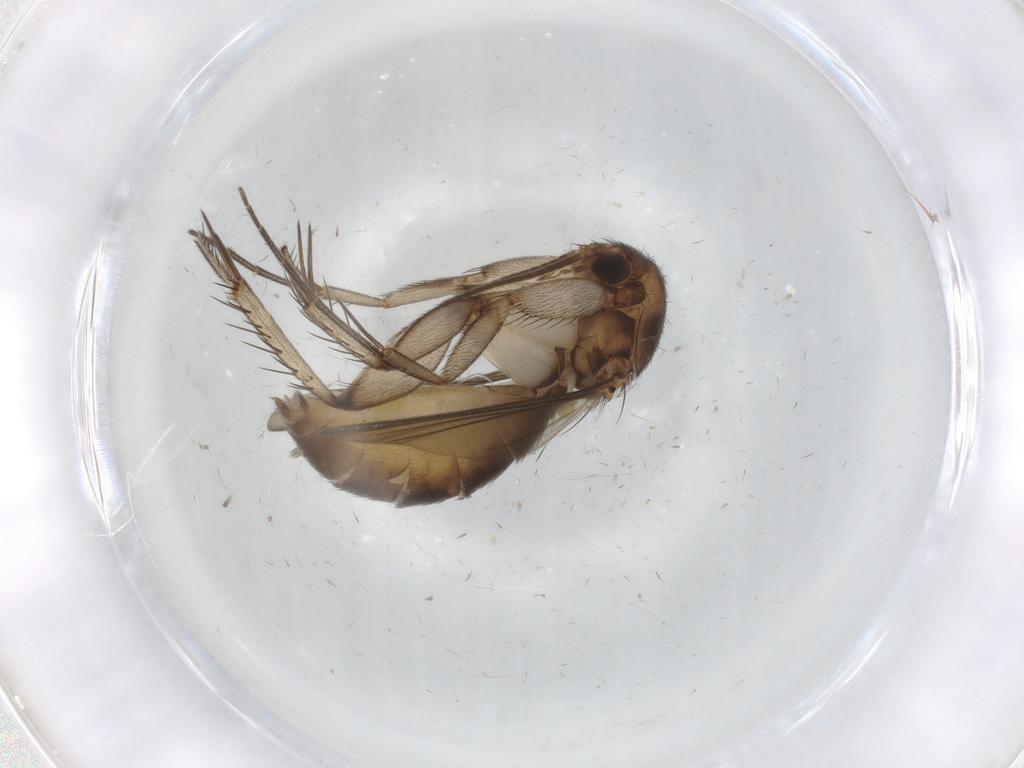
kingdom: Animalia
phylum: Arthropoda
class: Insecta
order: Diptera
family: Mycetophilidae
